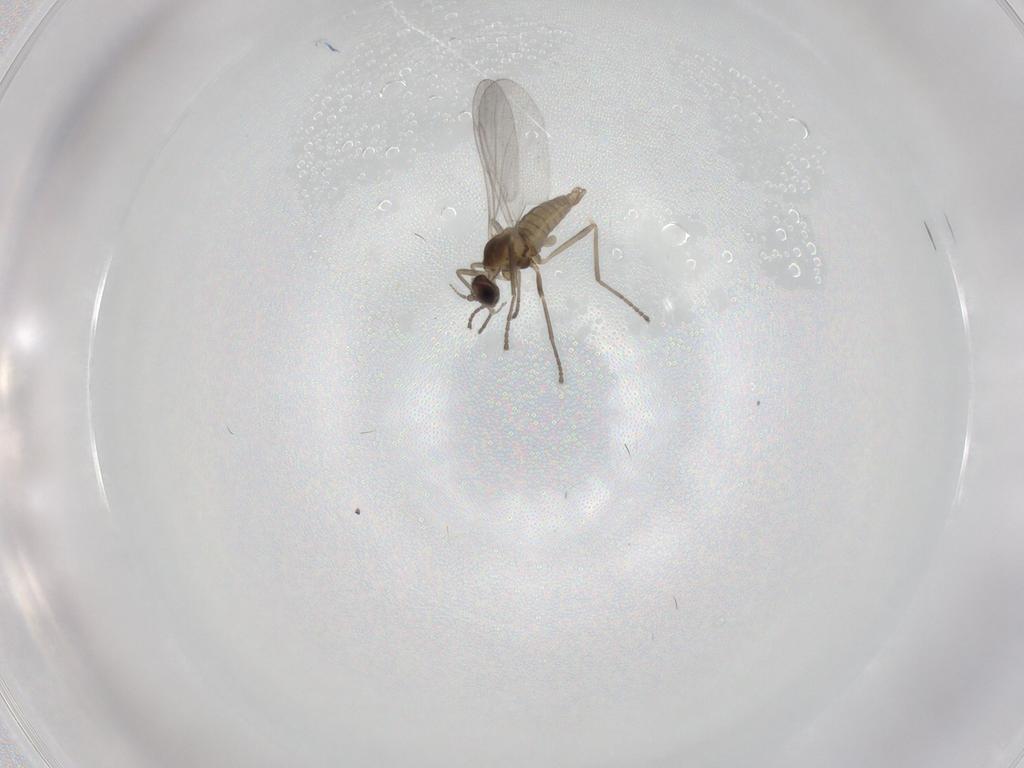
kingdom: Animalia
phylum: Arthropoda
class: Insecta
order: Diptera
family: Cecidomyiidae
